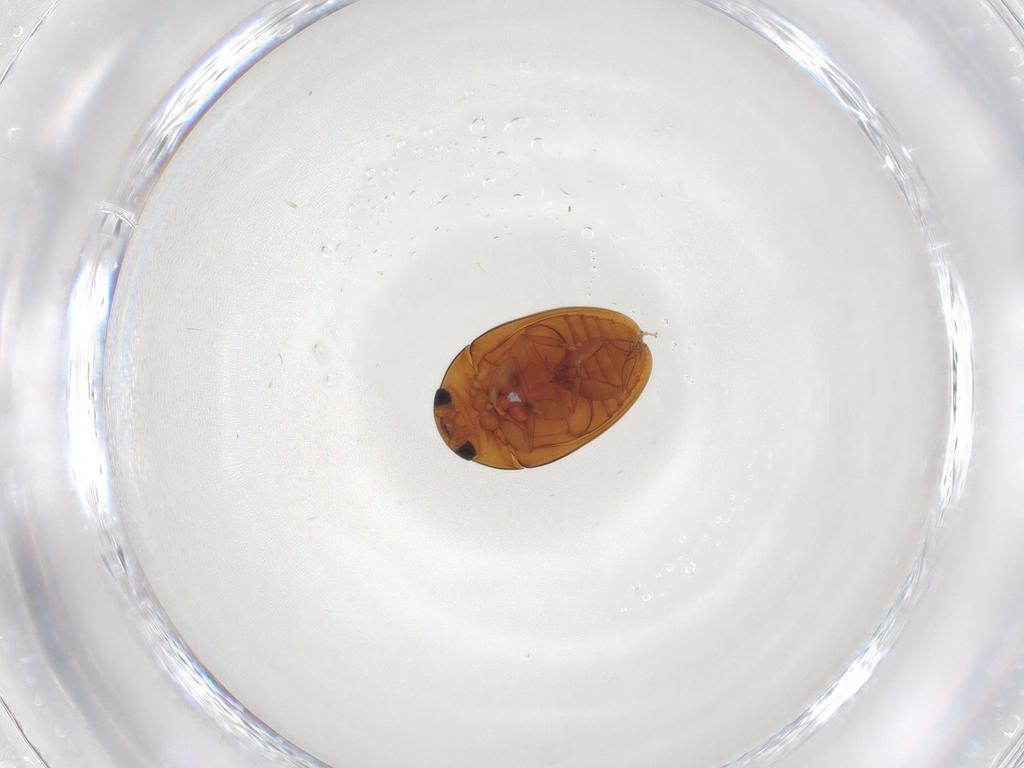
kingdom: Animalia
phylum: Arthropoda
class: Insecta
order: Coleoptera
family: Phalacridae
